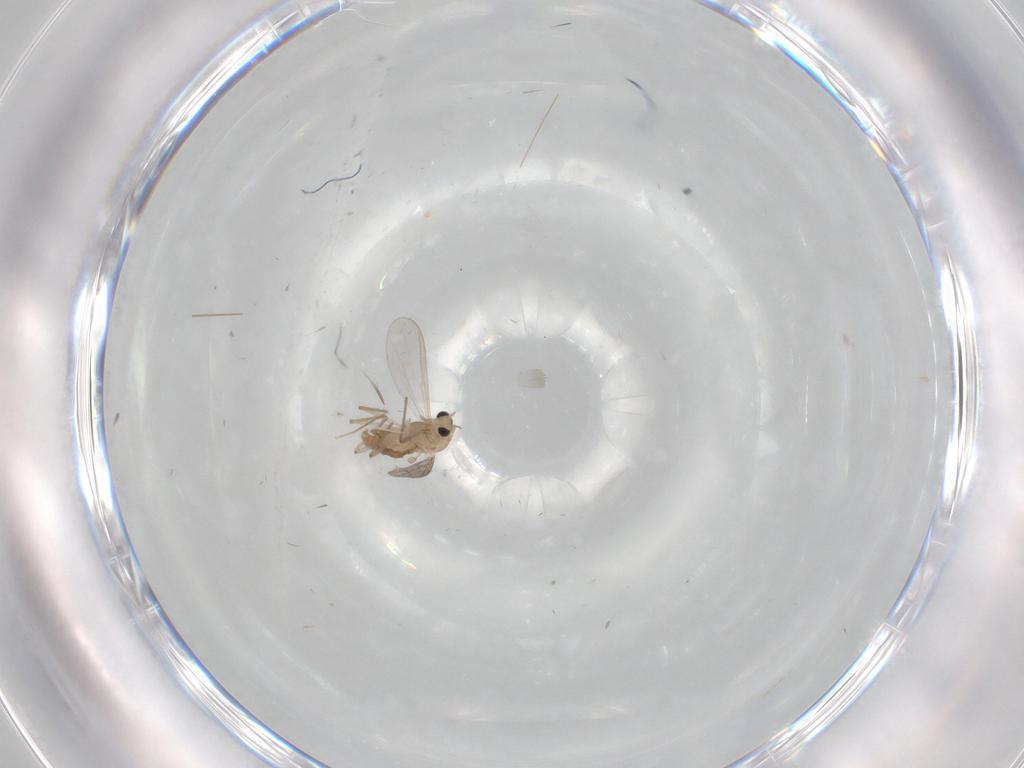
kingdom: Animalia
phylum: Arthropoda
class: Insecta
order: Diptera
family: Chironomidae
